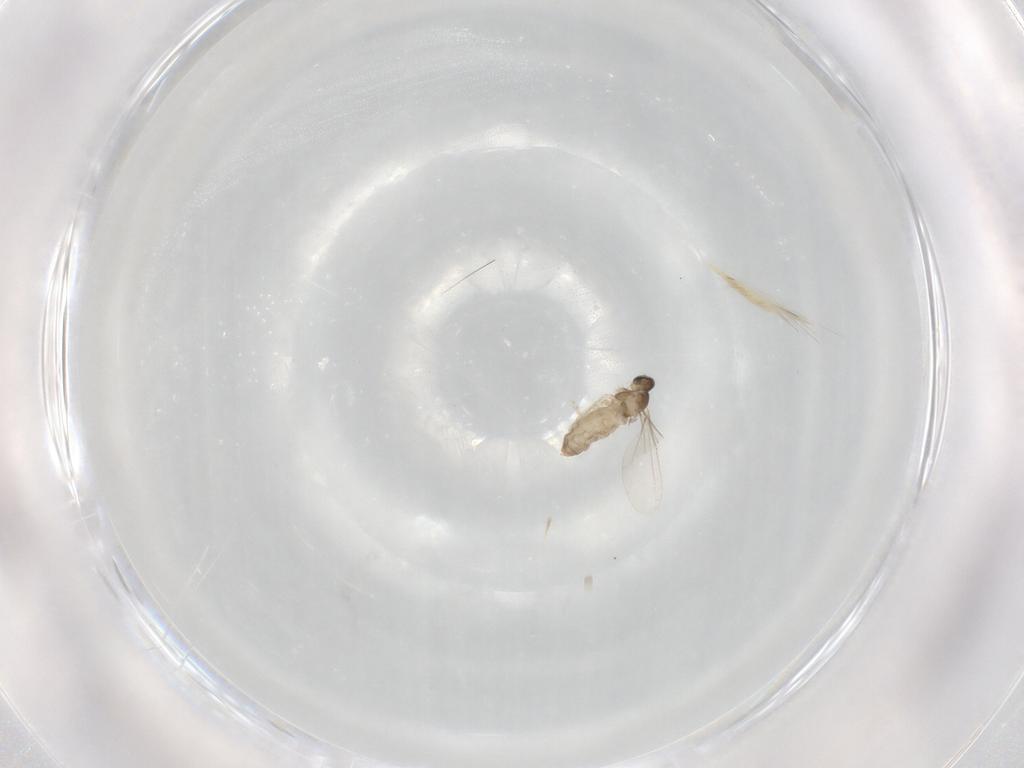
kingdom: Animalia
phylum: Arthropoda
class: Insecta
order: Diptera
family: Cecidomyiidae
